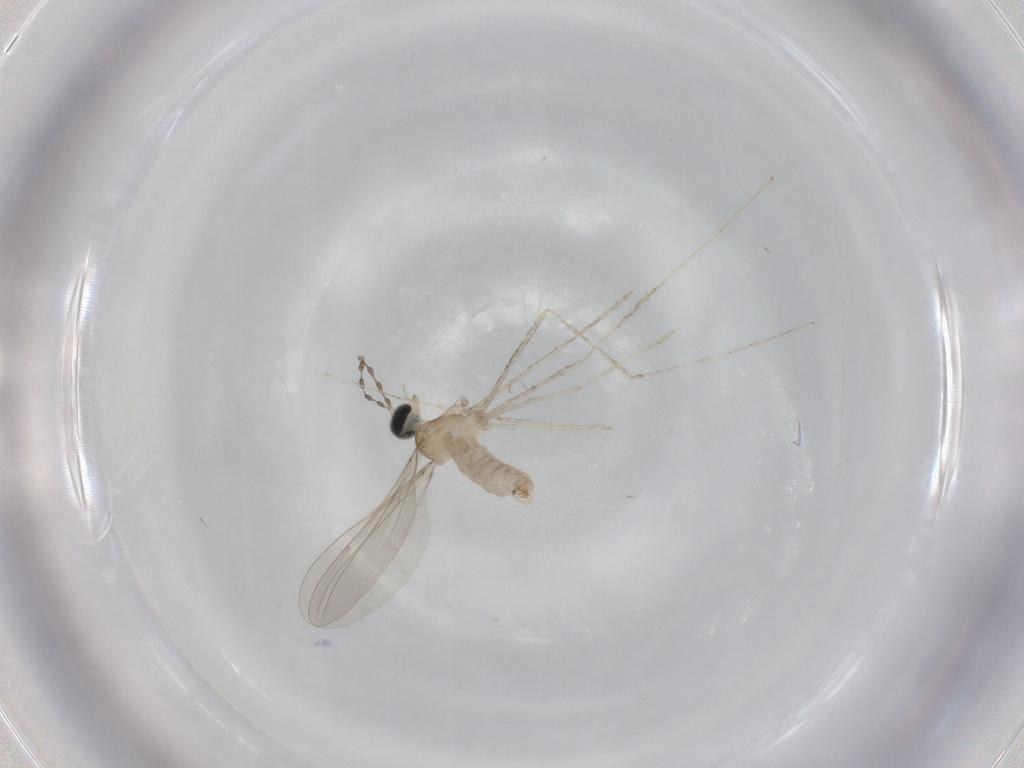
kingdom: Animalia
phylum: Arthropoda
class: Insecta
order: Diptera
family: Cecidomyiidae
